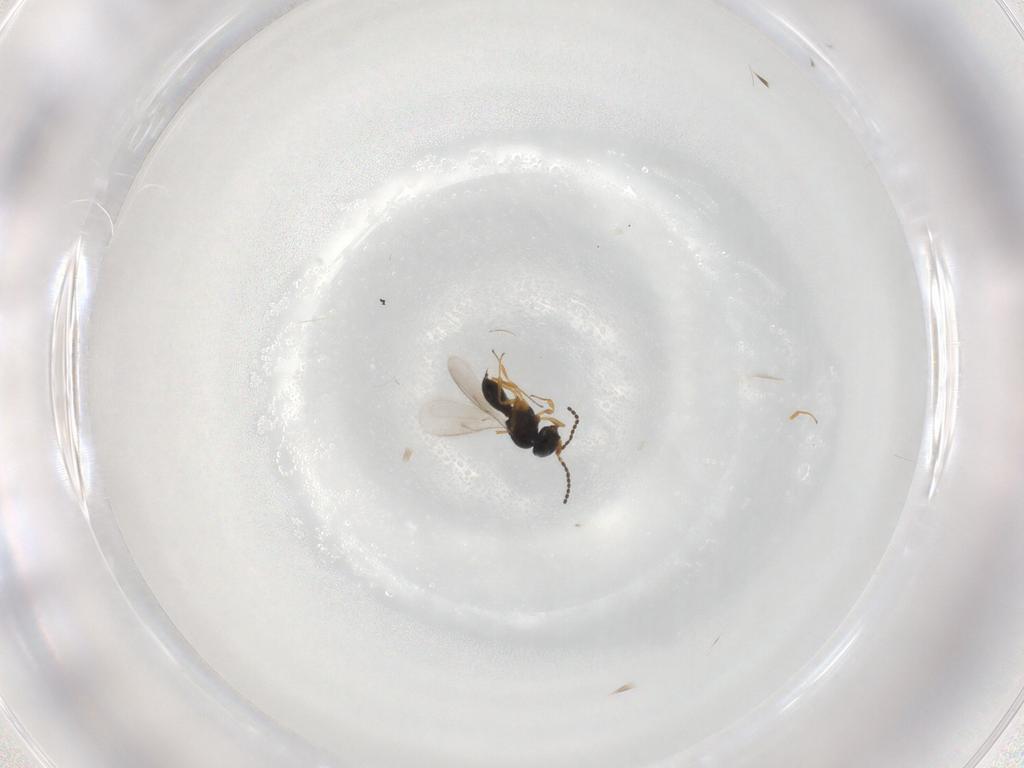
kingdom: Animalia
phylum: Arthropoda
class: Insecta
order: Hymenoptera
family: Scelionidae
